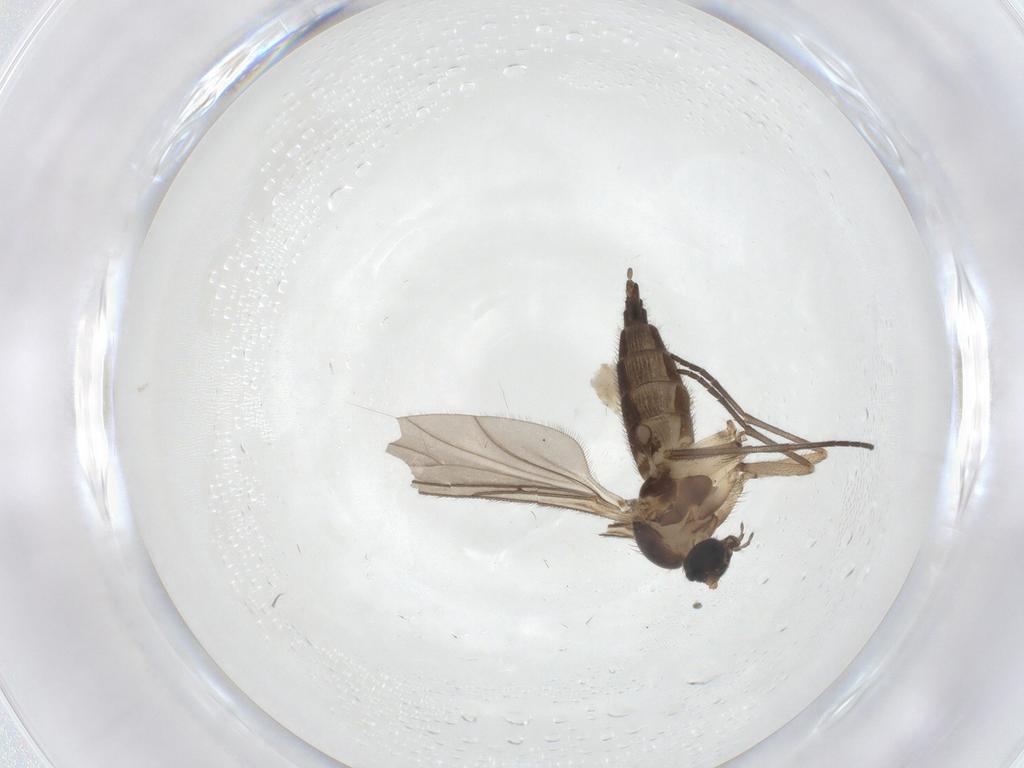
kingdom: Animalia
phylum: Arthropoda
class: Insecta
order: Diptera
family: Sciaridae
